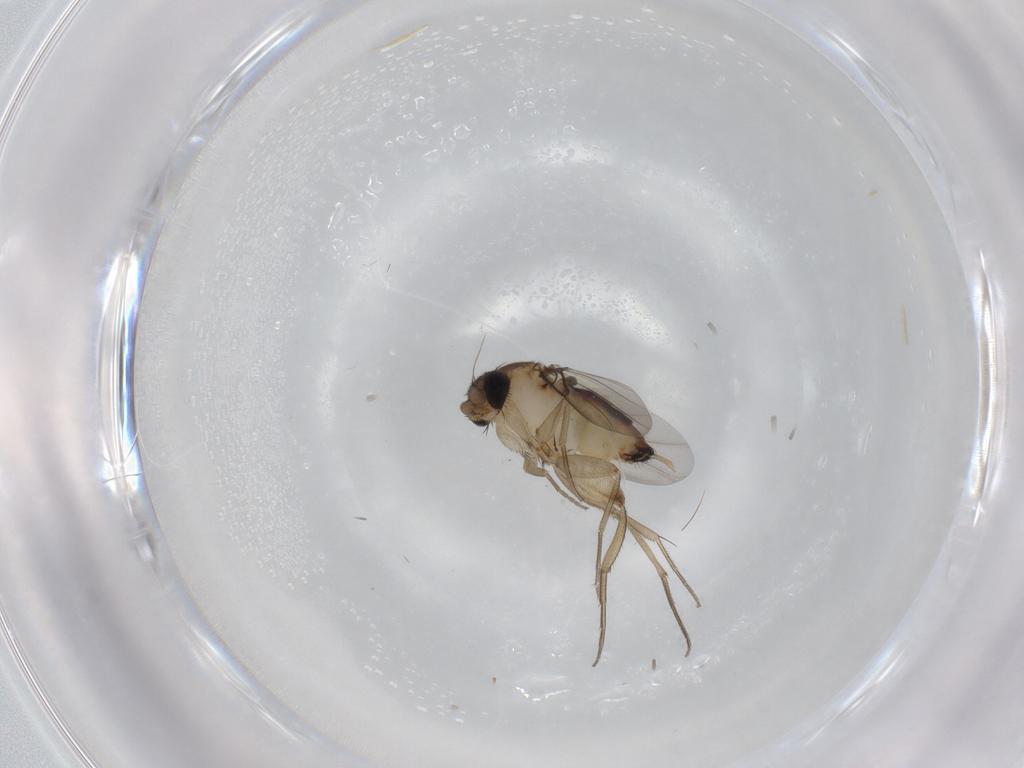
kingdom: Animalia
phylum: Arthropoda
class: Insecta
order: Diptera
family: Phoridae
